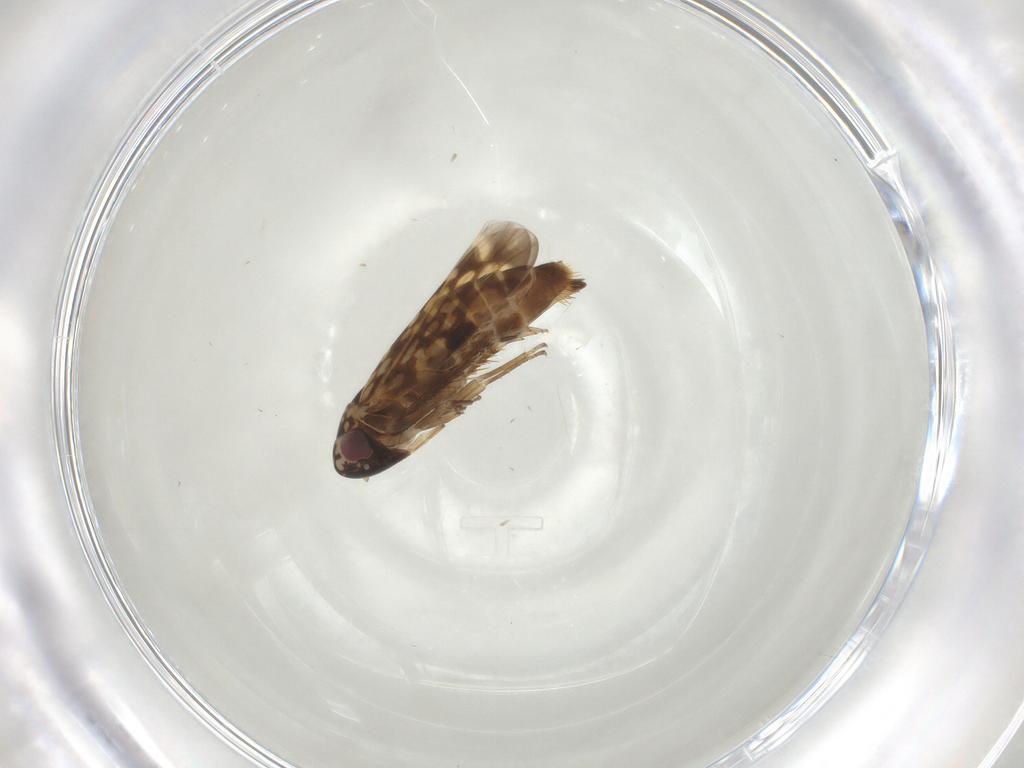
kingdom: Animalia
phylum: Arthropoda
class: Insecta
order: Hemiptera
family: Cicadellidae
